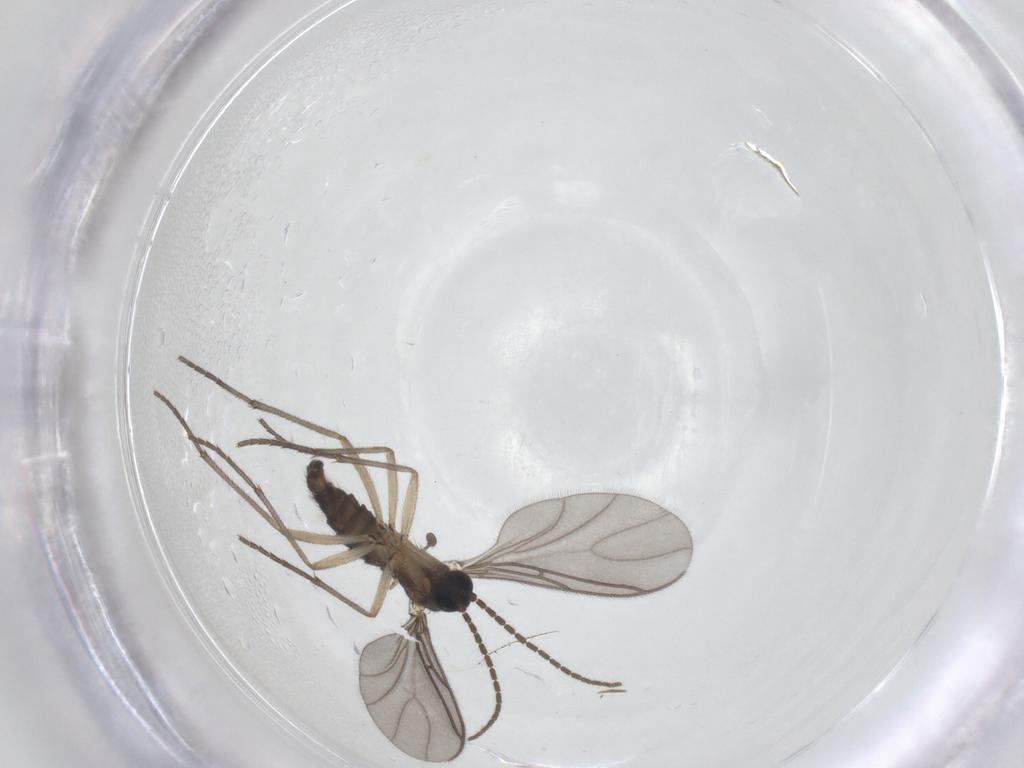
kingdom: Animalia
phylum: Arthropoda
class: Insecta
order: Diptera
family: Sciaridae
